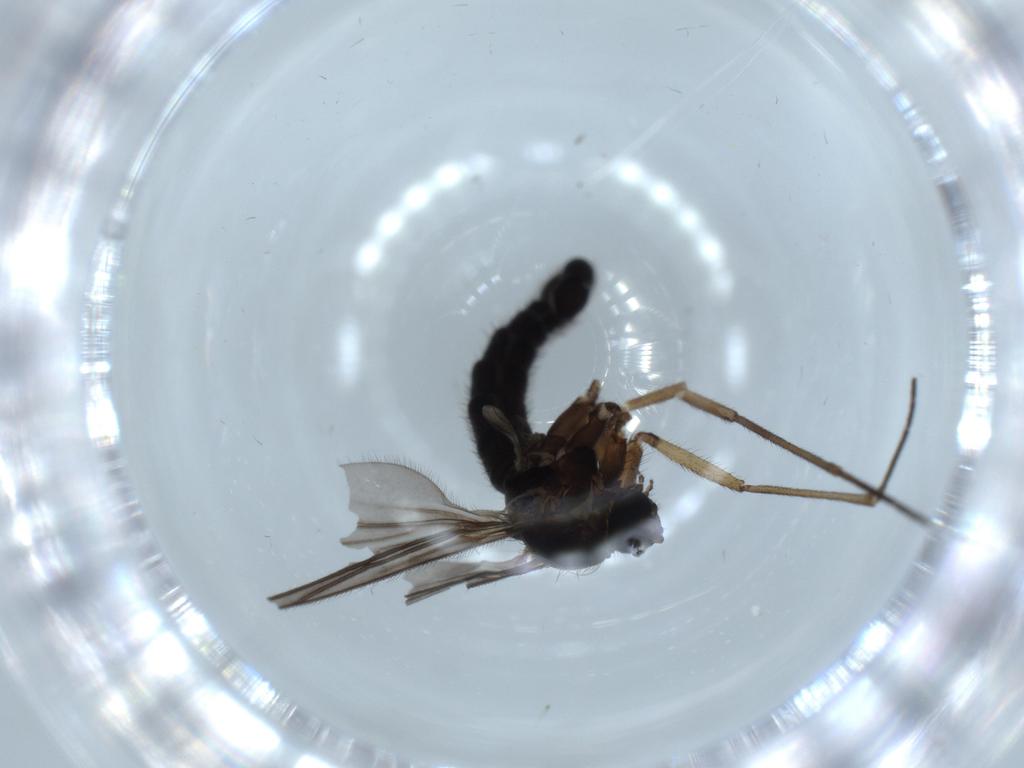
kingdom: Animalia
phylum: Arthropoda
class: Insecta
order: Diptera
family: Sciaridae
